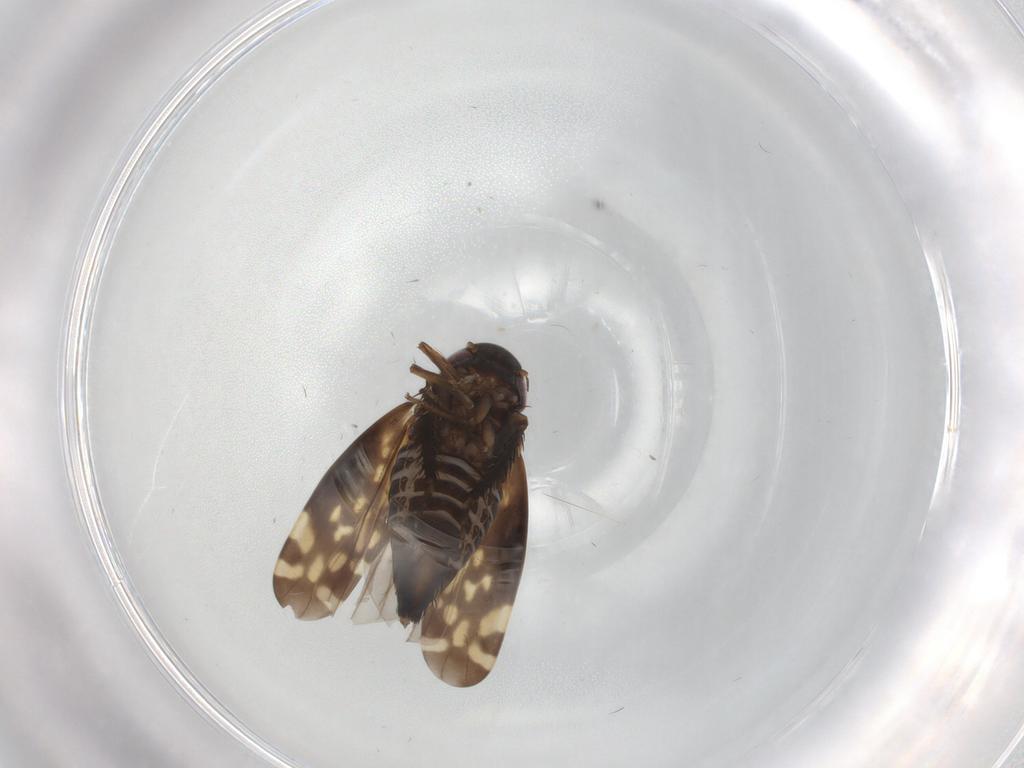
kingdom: Animalia
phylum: Arthropoda
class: Insecta
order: Hemiptera
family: Cicadellidae
